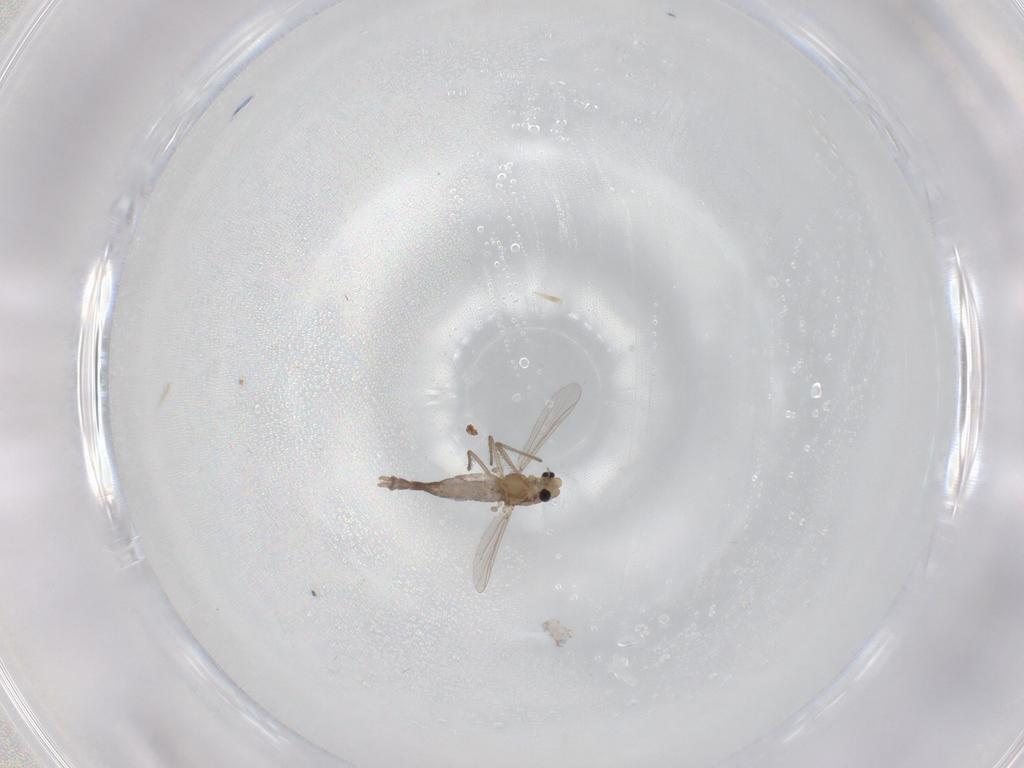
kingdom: Animalia
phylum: Arthropoda
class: Insecta
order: Diptera
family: Chironomidae
